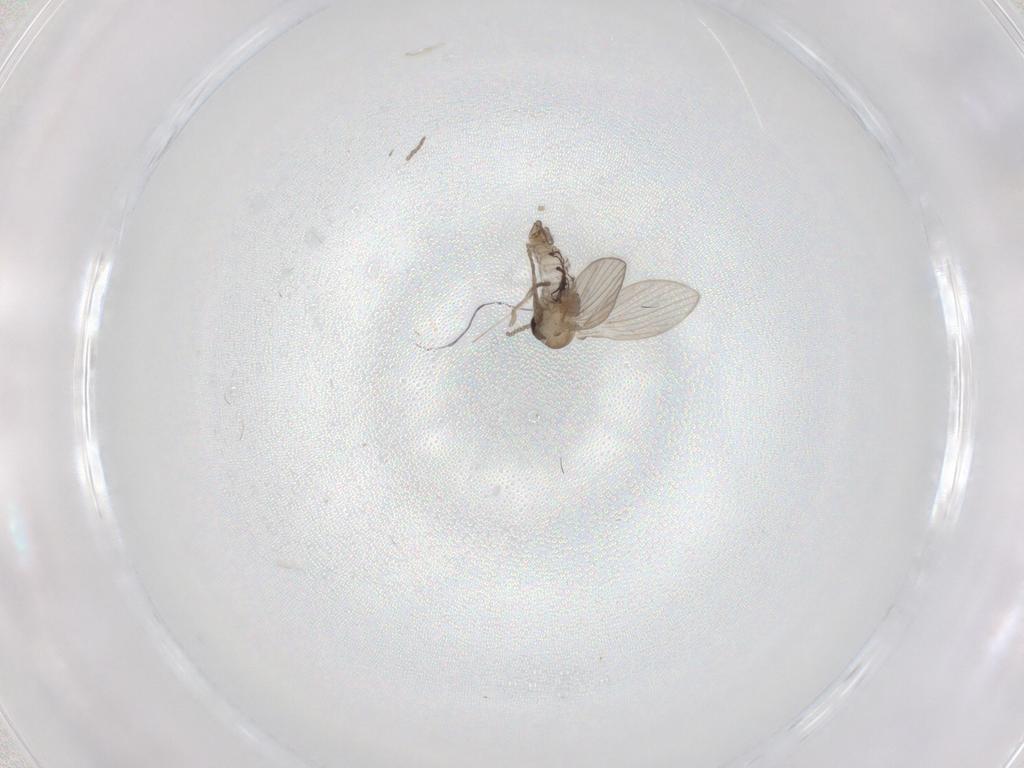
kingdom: Animalia
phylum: Arthropoda
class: Insecta
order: Diptera
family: Psychodidae
